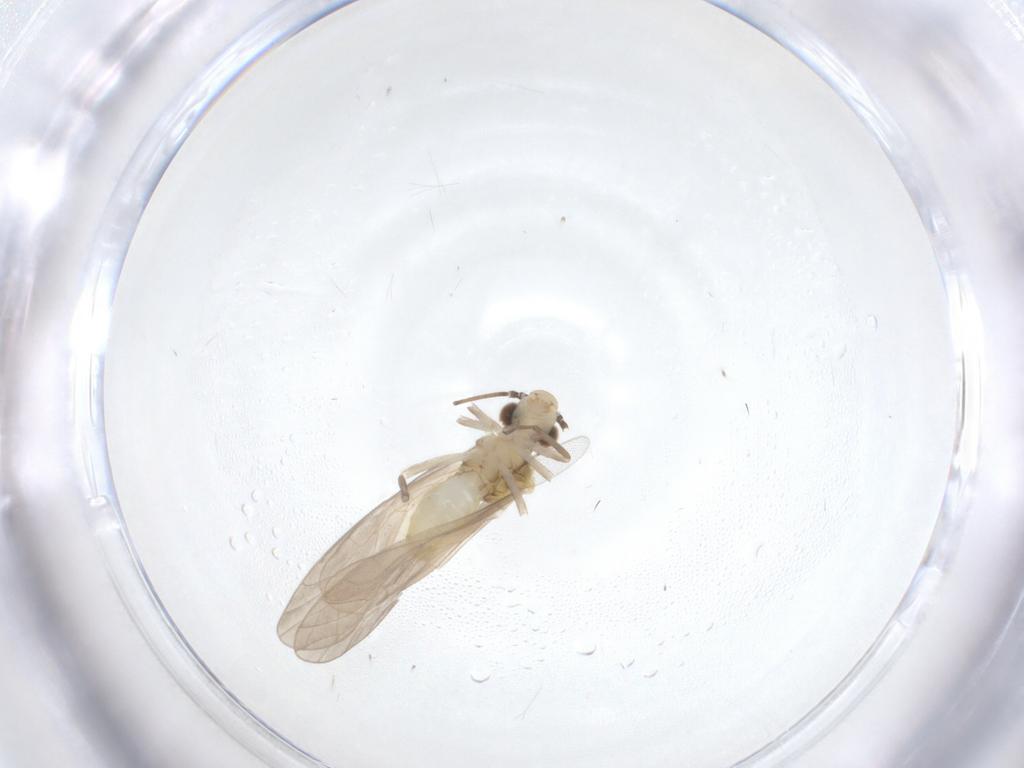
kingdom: Animalia
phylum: Arthropoda
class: Insecta
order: Psocodea
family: Caeciliusidae
